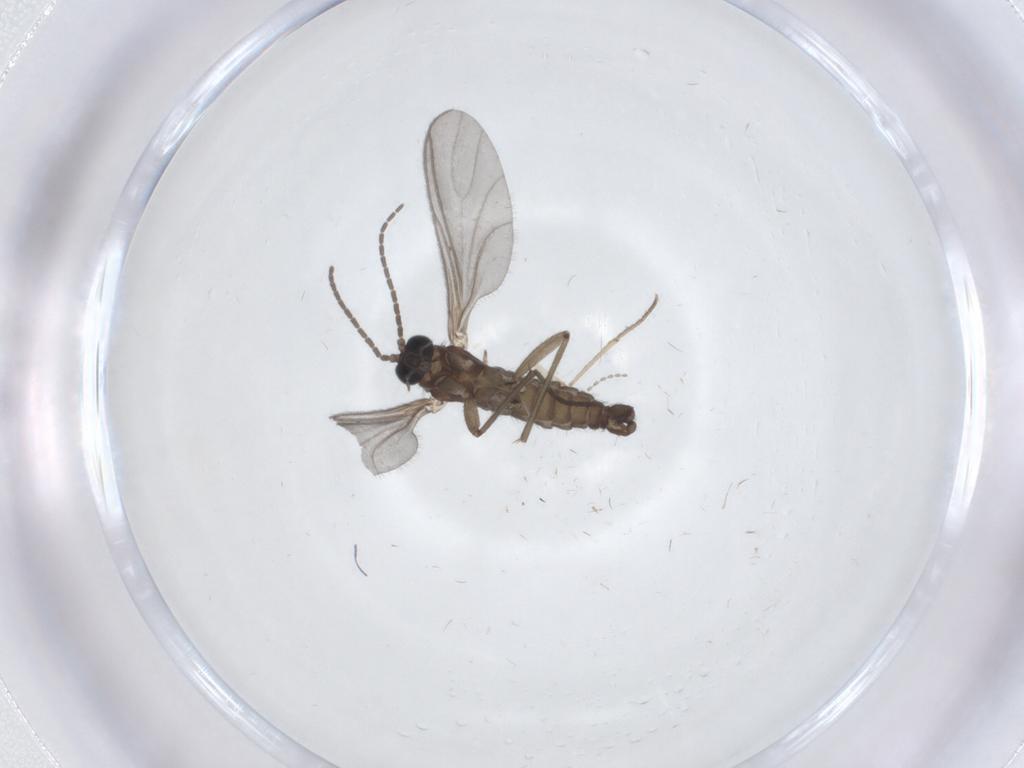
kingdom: Animalia
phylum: Arthropoda
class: Insecta
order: Diptera
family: Sciaridae
